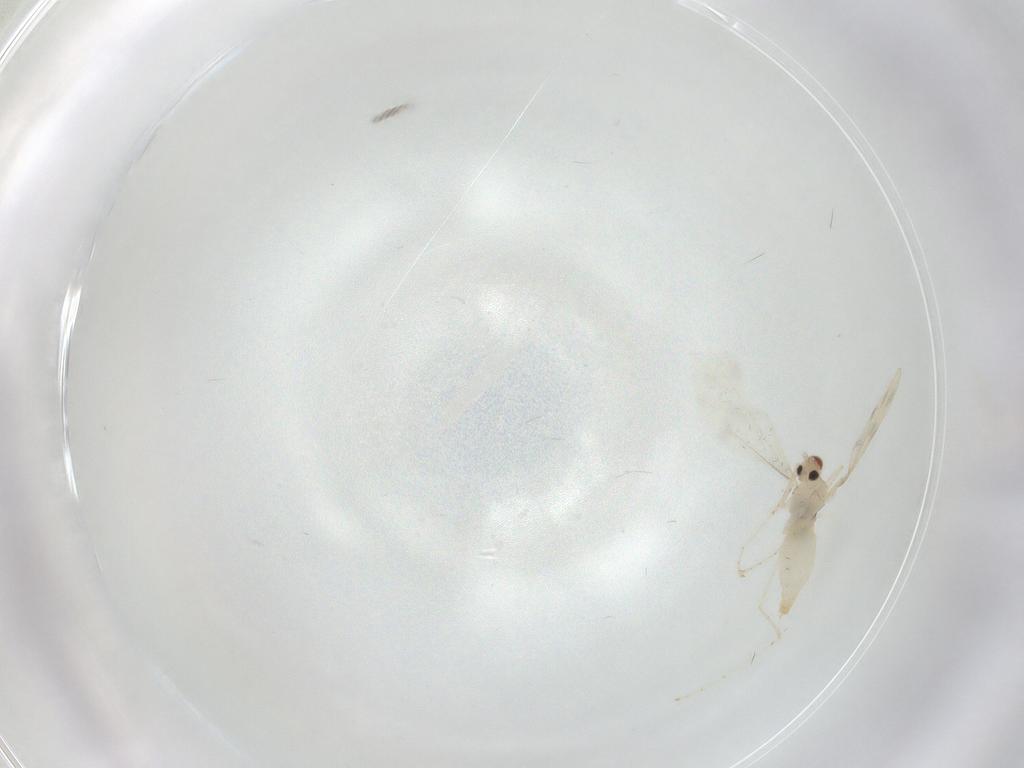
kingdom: Animalia
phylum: Arthropoda
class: Insecta
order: Diptera
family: Cecidomyiidae
